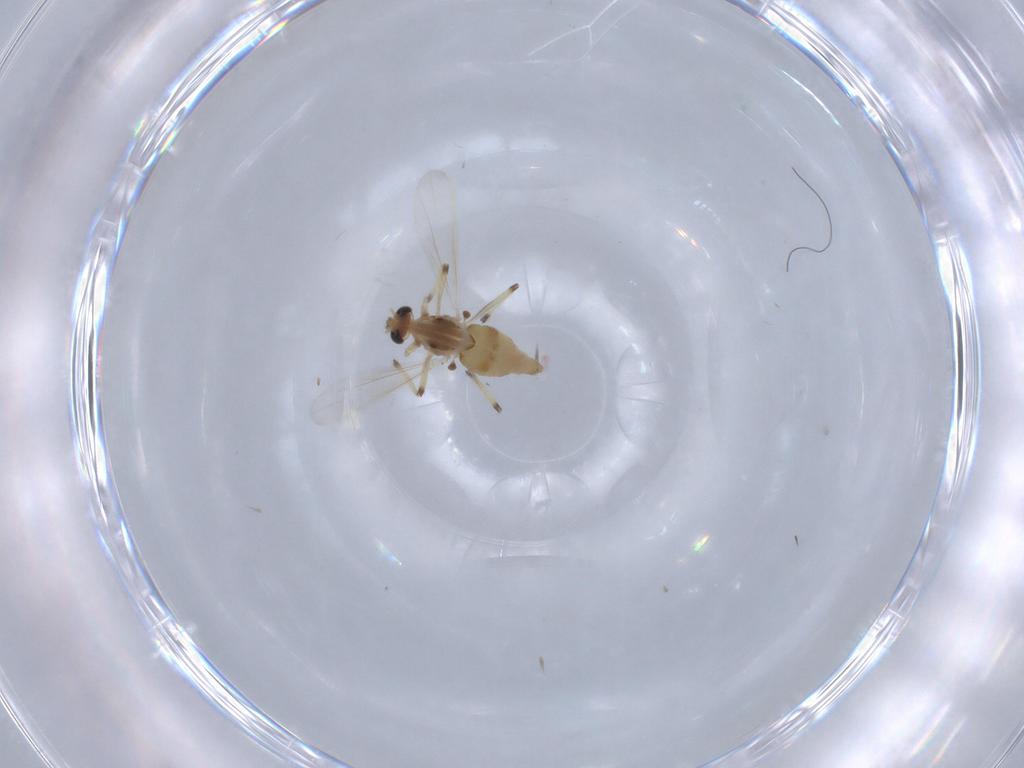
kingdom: Animalia
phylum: Arthropoda
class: Insecta
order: Diptera
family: Chironomidae
